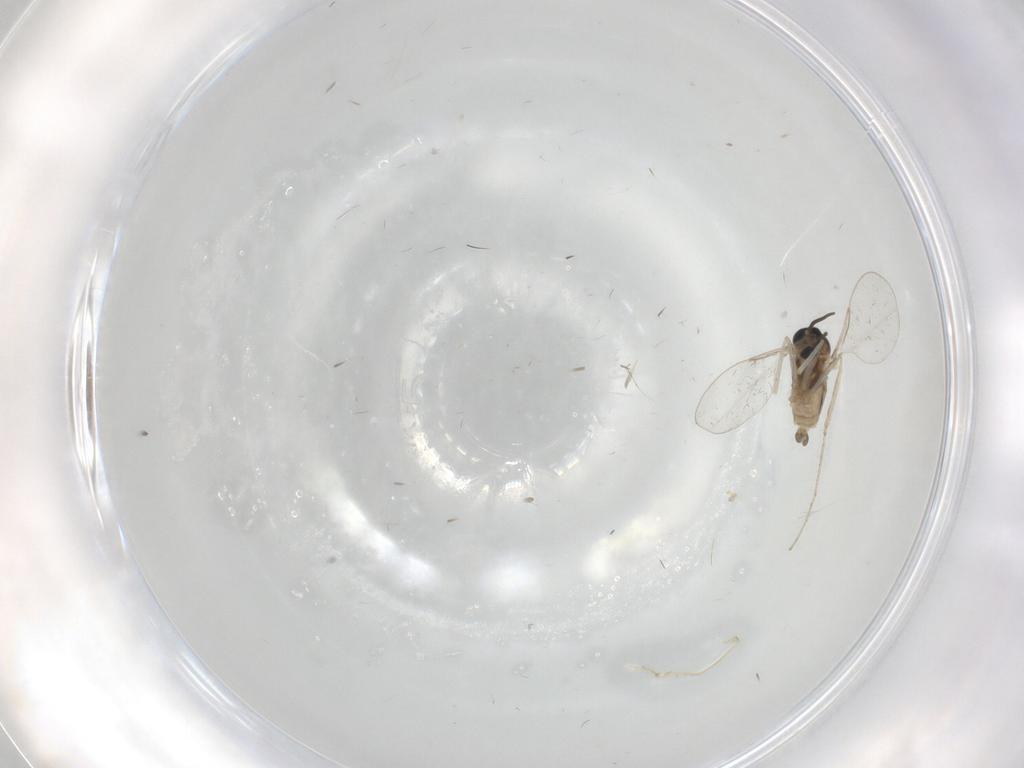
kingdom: Animalia
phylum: Arthropoda
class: Insecta
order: Diptera
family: Cecidomyiidae
